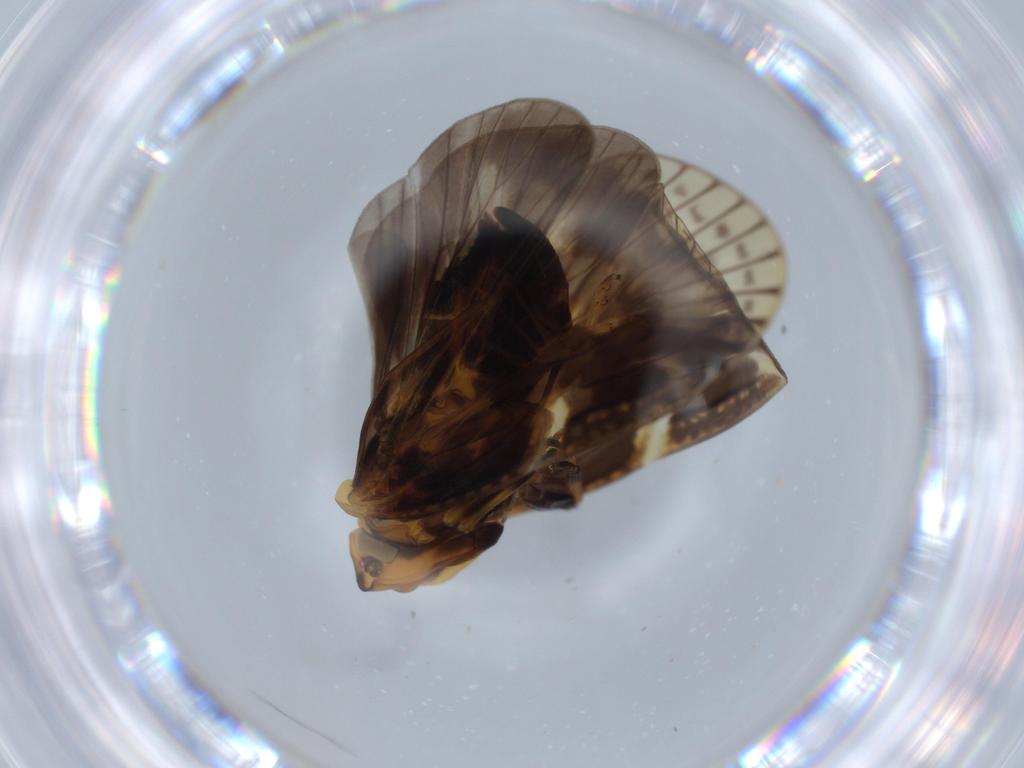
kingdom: Animalia
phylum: Arthropoda
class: Insecta
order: Hemiptera
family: Cixiidae
